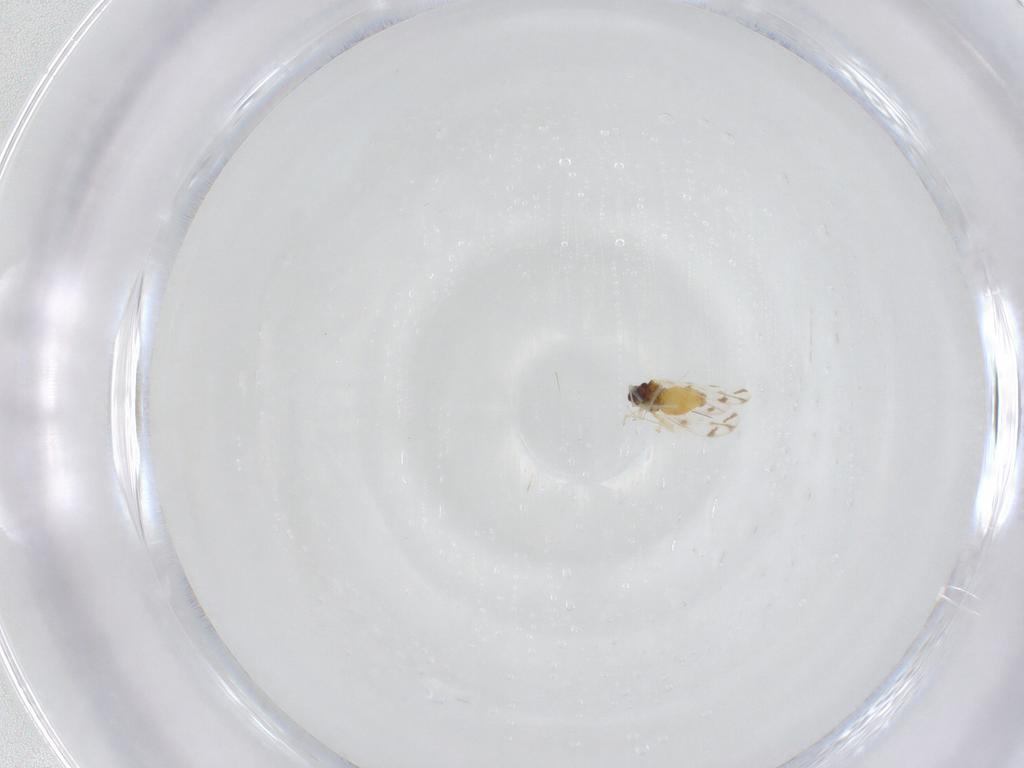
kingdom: Animalia
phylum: Arthropoda
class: Insecta
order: Hemiptera
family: Aleyrodidae
